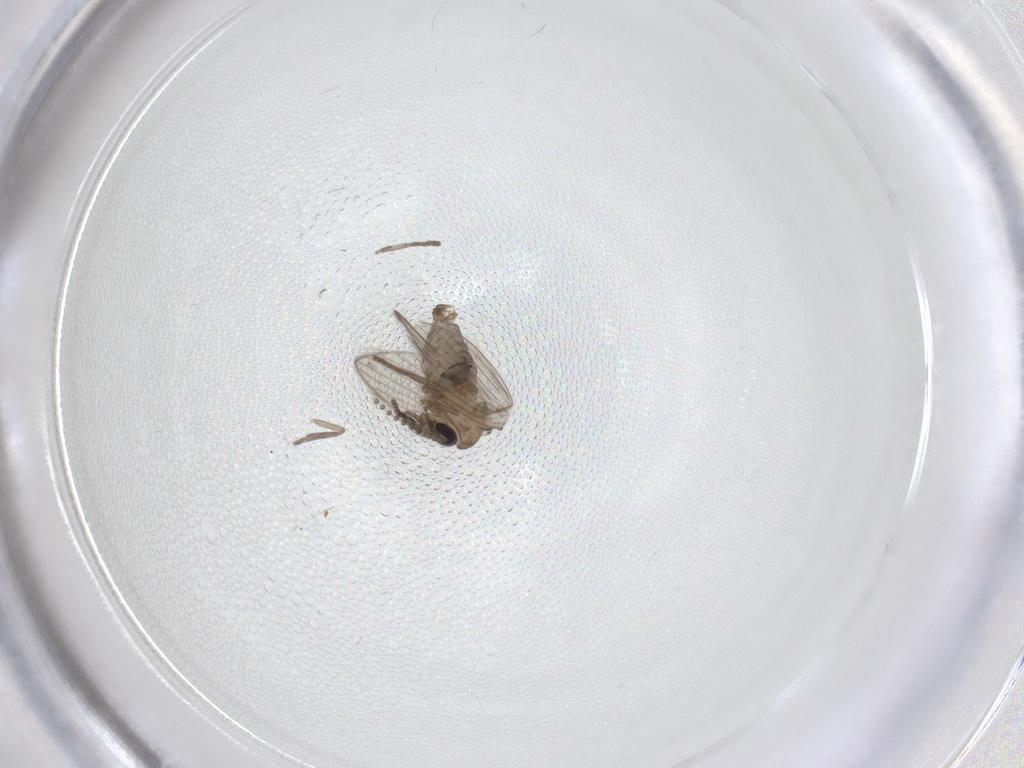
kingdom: Animalia
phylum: Arthropoda
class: Insecta
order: Diptera
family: Psychodidae
